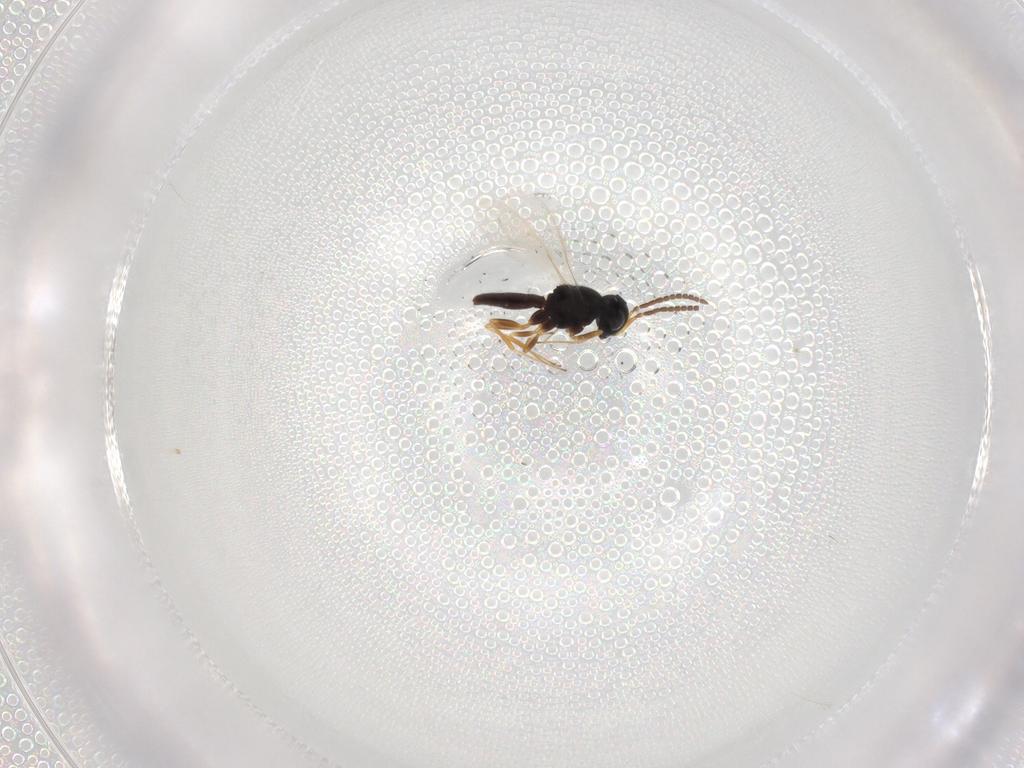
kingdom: Animalia
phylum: Arthropoda
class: Insecta
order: Hymenoptera
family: Scelionidae
